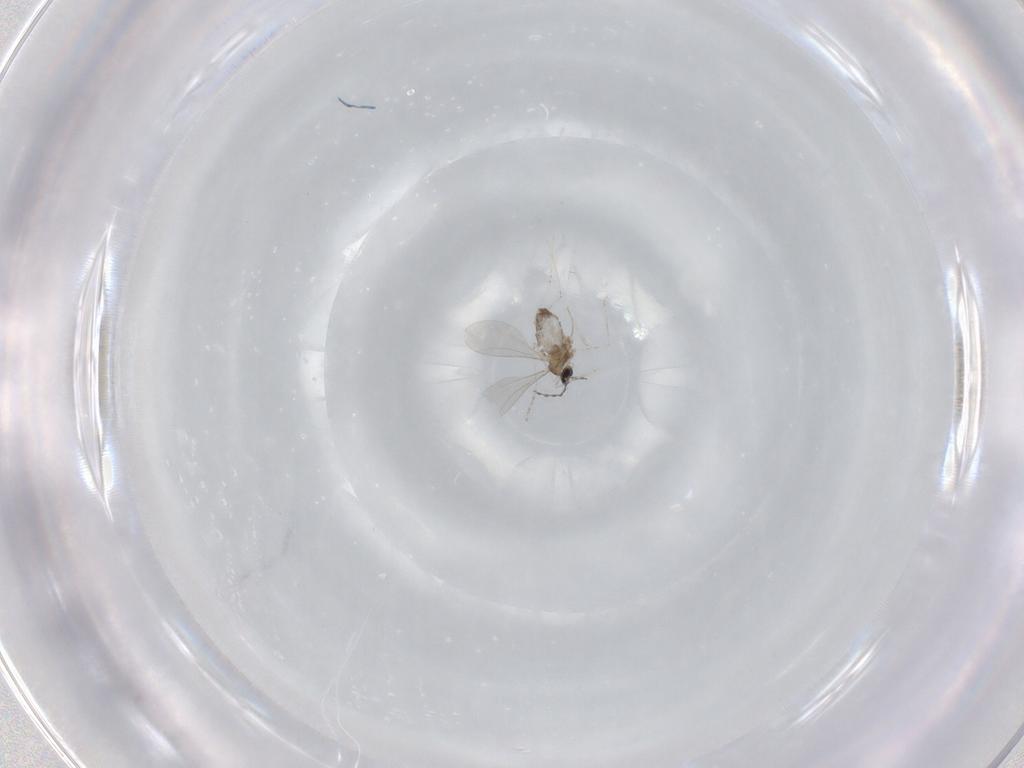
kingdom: Animalia
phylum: Arthropoda
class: Insecta
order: Diptera
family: Cecidomyiidae
